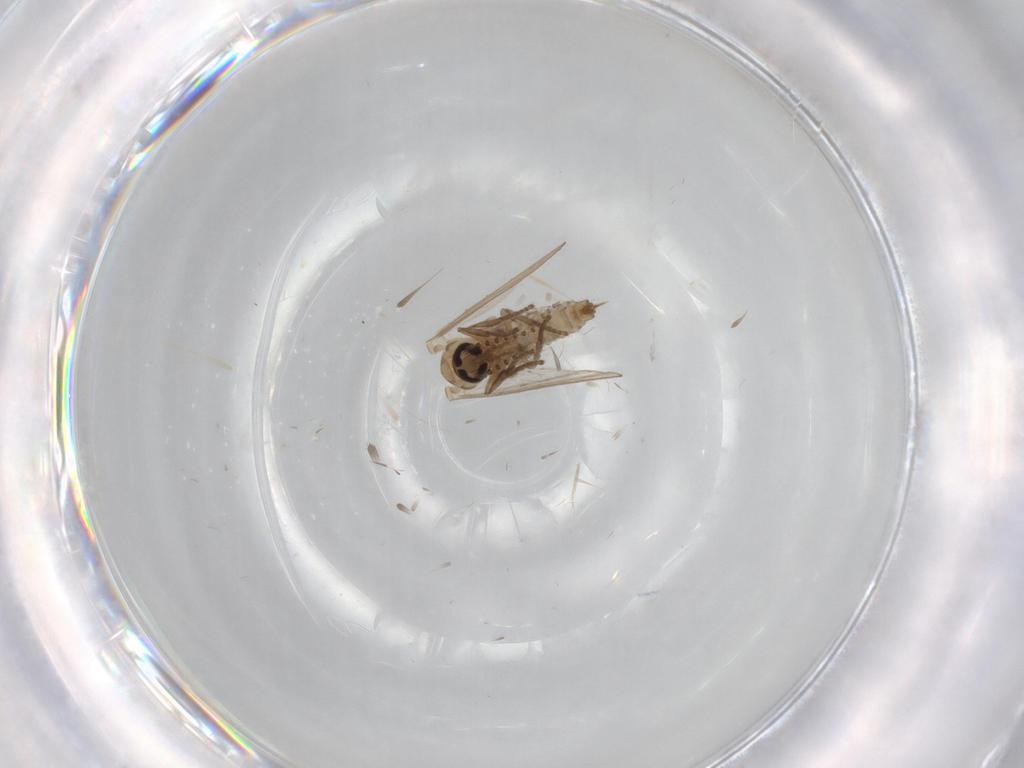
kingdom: Animalia
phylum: Arthropoda
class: Insecta
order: Diptera
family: Psychodidae
